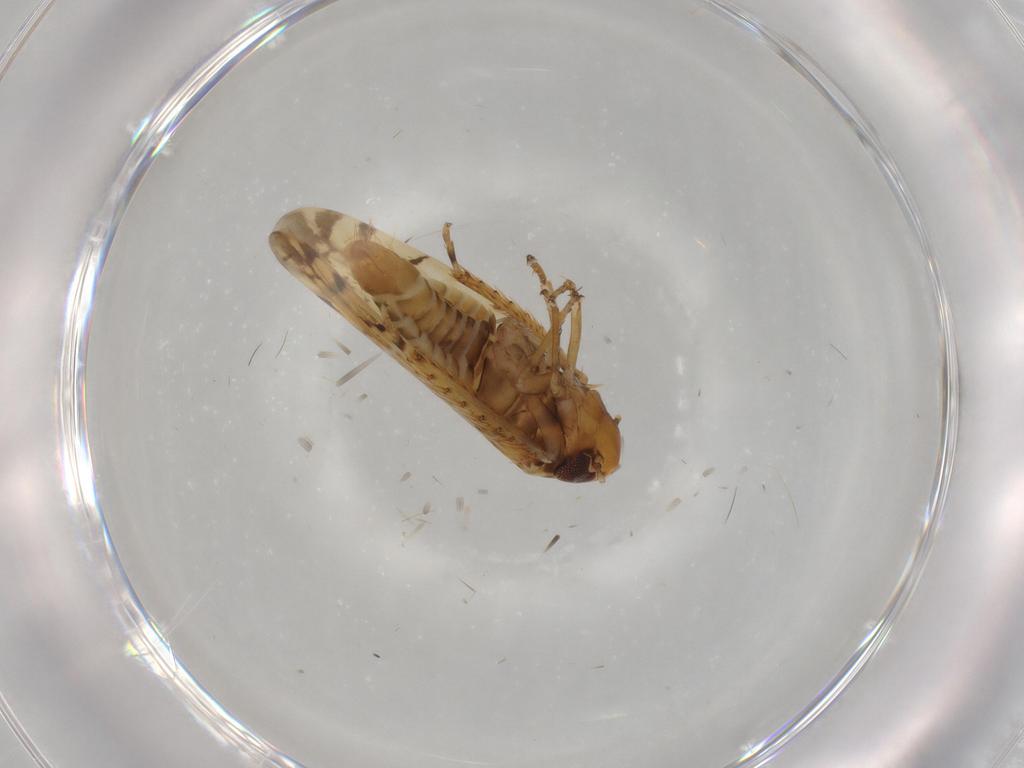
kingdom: Animalia
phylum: Arthropoda
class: Insecta
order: Hemiptera
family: Cicadellidae
